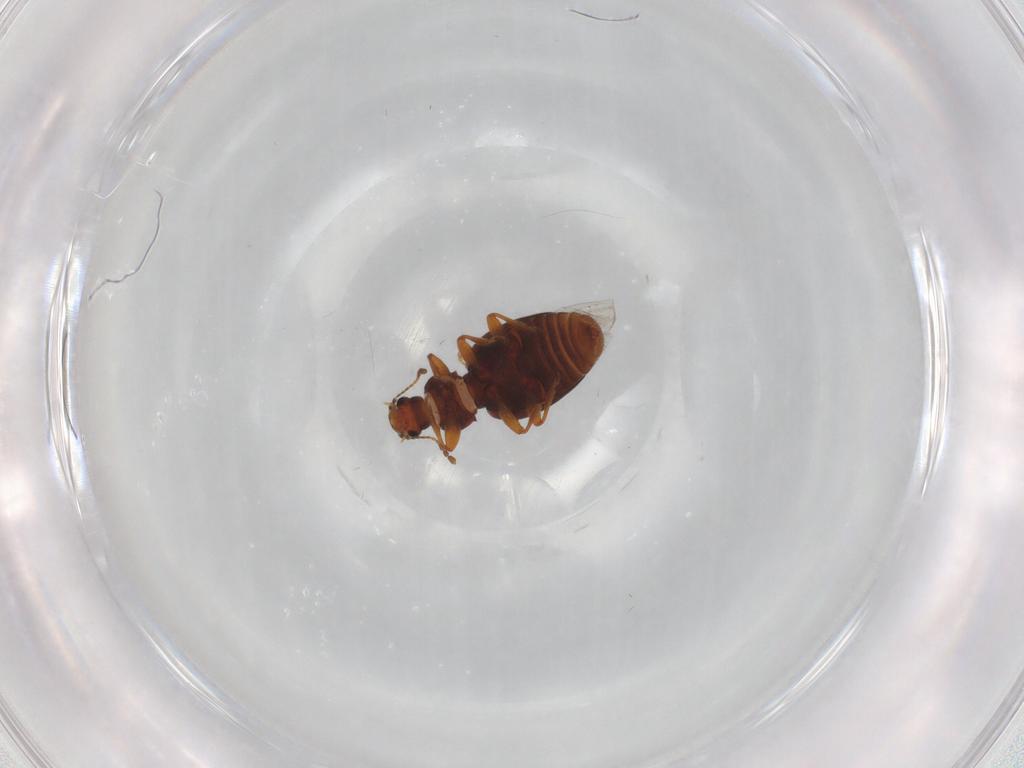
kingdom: Animalia
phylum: Arthropoda
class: Insecta
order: Coleoptera
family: Latridiidae
